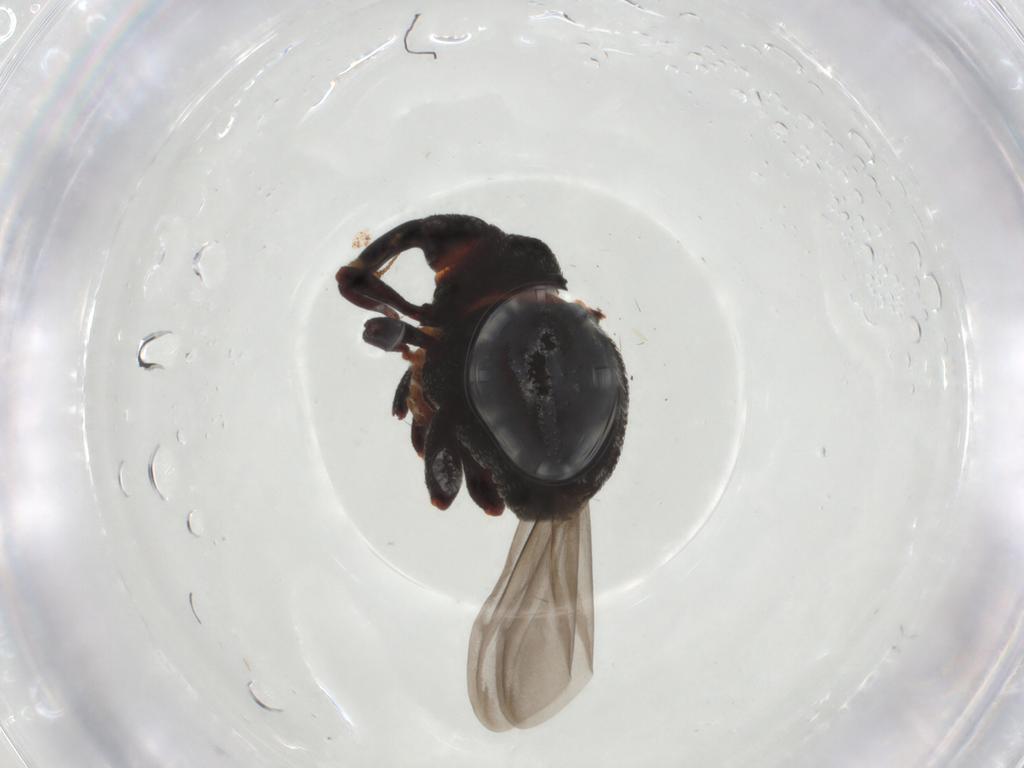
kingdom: Animalia
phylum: Arthropoda
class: Insecta
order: Coleoptera
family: Curculionidae
